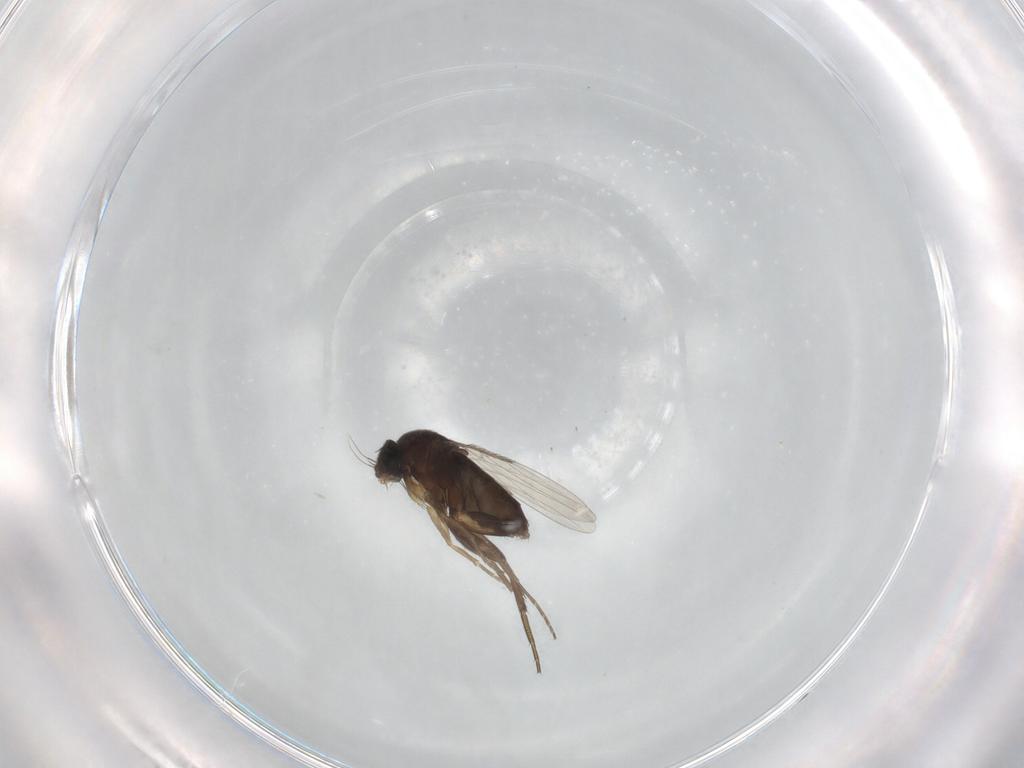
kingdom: Animalia
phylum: Arthropoda
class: Insecta
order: Diptera
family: Phoridae
